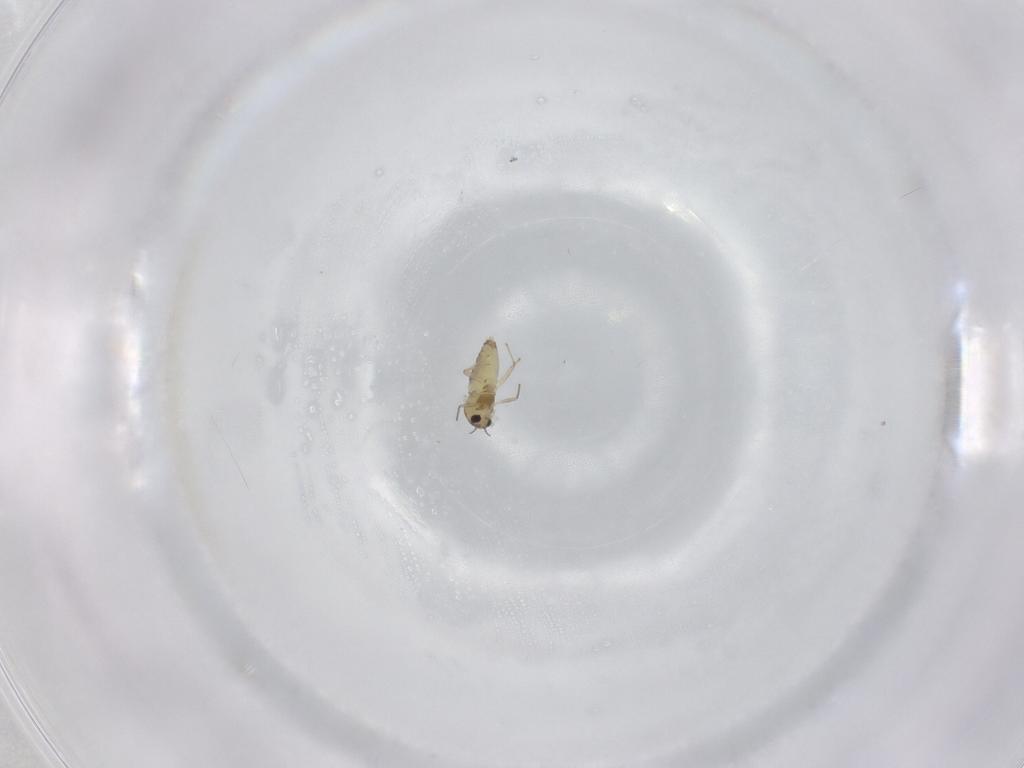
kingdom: Animalia
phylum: Arthropoda
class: Insecta
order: Diptera
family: Chironomidae
